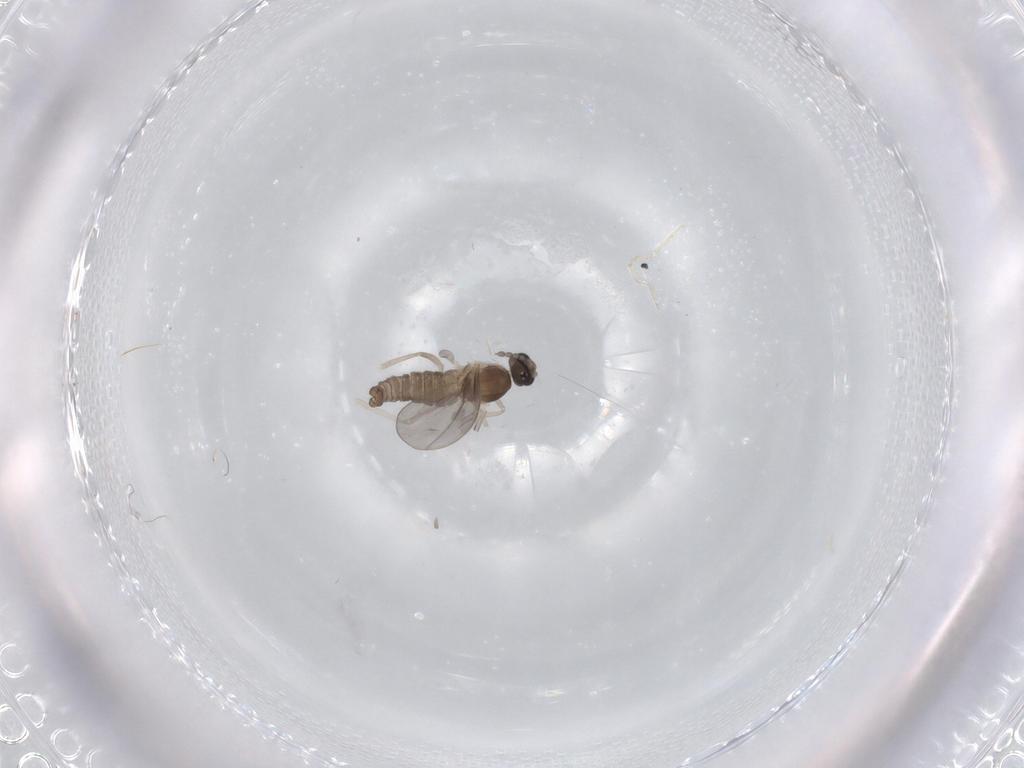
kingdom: Animalia
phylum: Arthropoda
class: Insecta
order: Diptera
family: Cecidomyiidae
